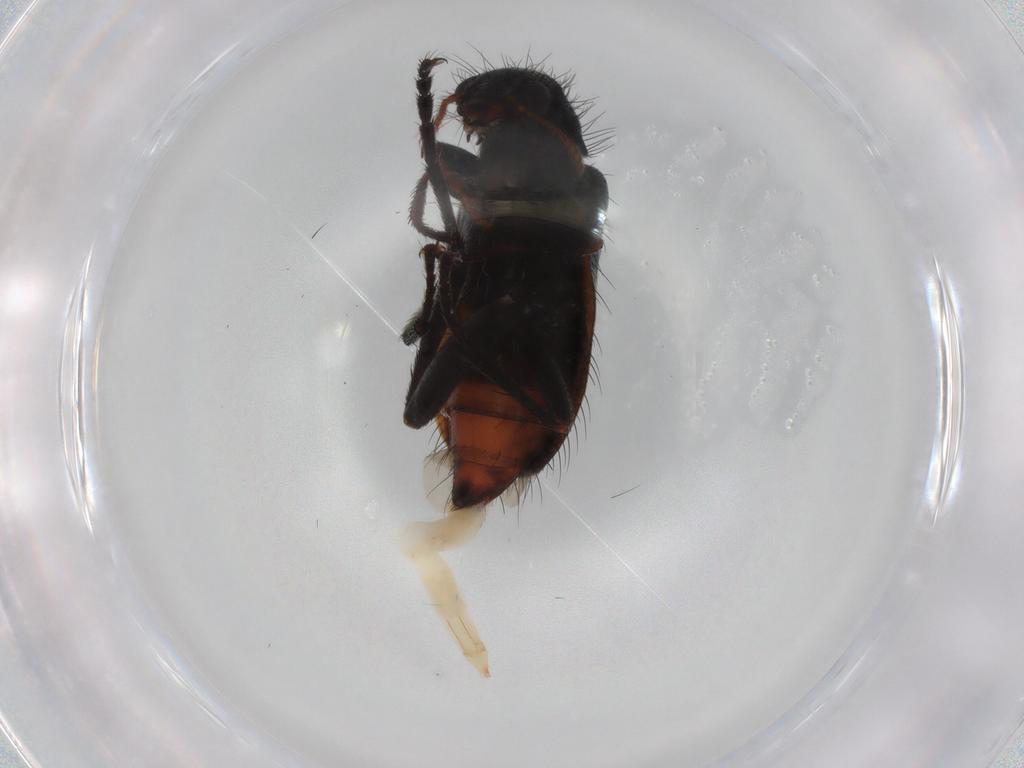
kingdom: Animalia
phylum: Arthropoda
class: Insecta
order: Coleoptera
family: Melyridae
